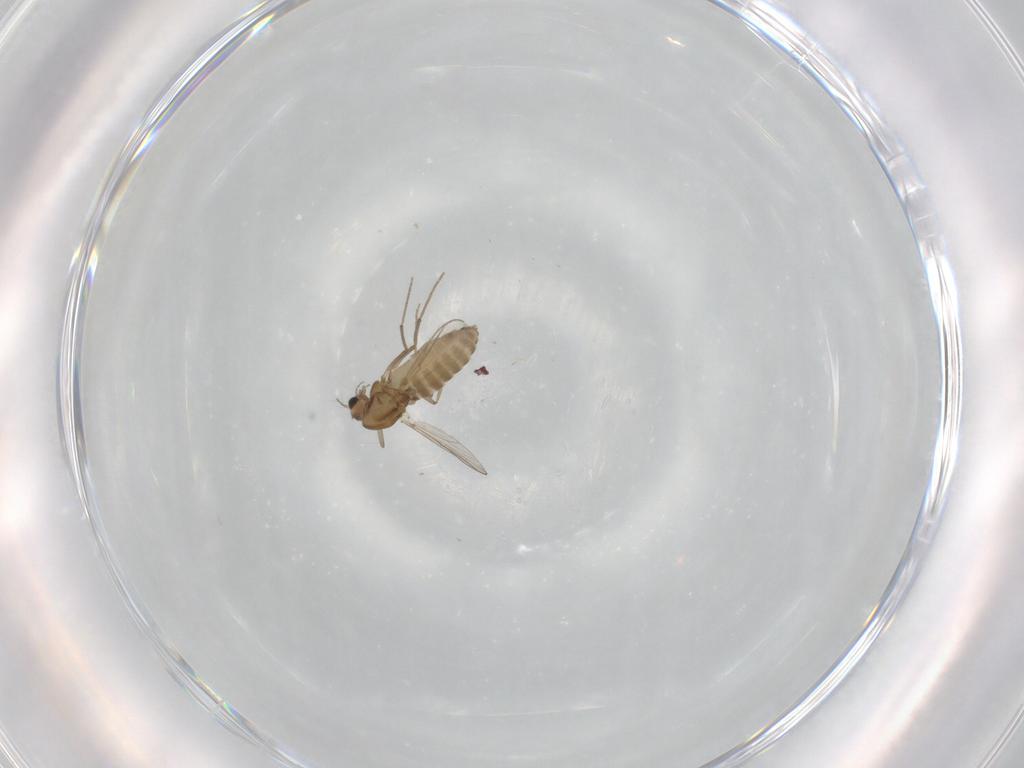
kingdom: Animalia
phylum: Arthropoda
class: Insecta
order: Diptera
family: Chironomidae
